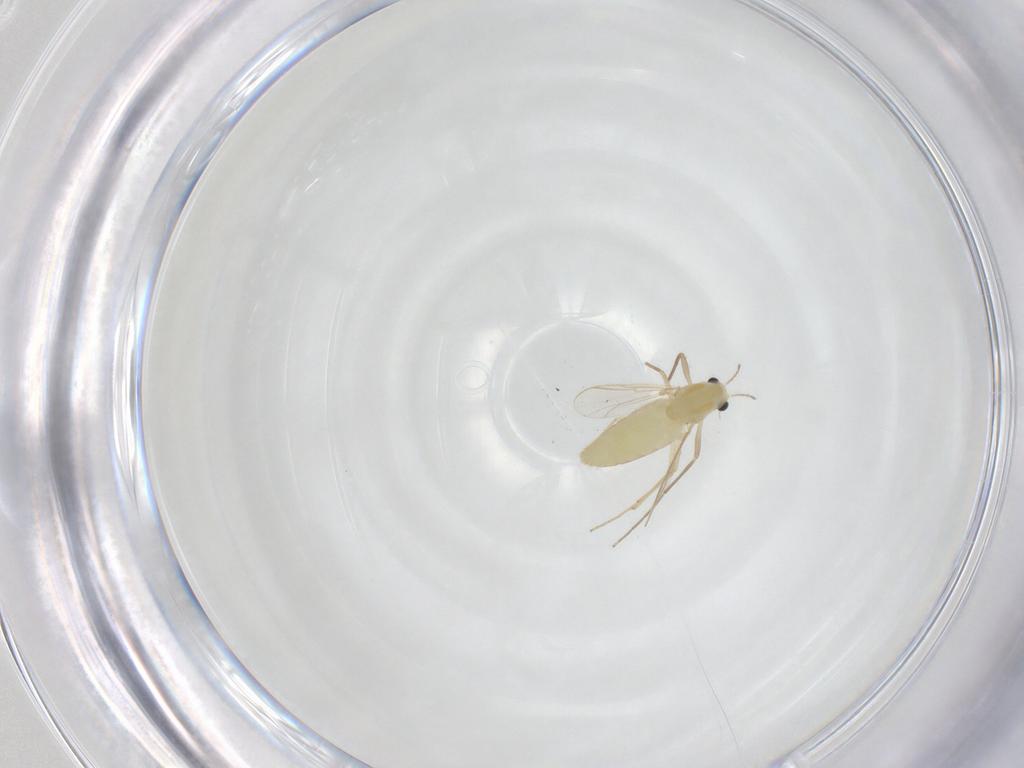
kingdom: Animalia
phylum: Arthropoda
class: Insecta
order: Diptera
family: Chironomidae
